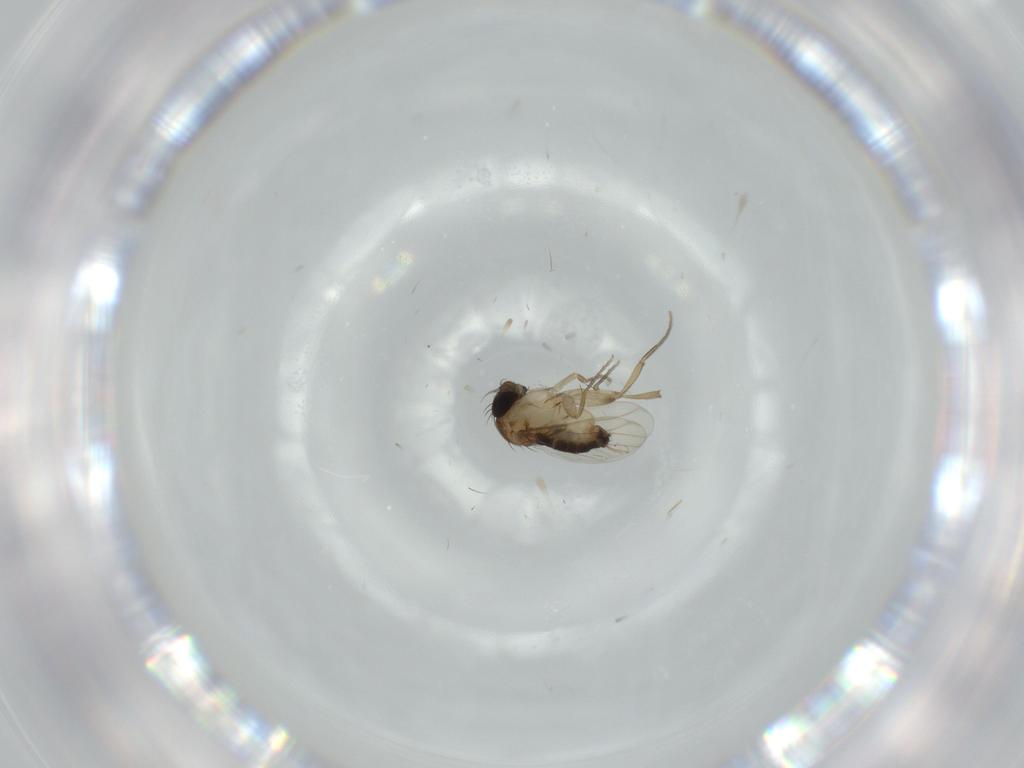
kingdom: Animalia
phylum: Arthropoda
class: Insecta
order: Diptera
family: Phoridae
